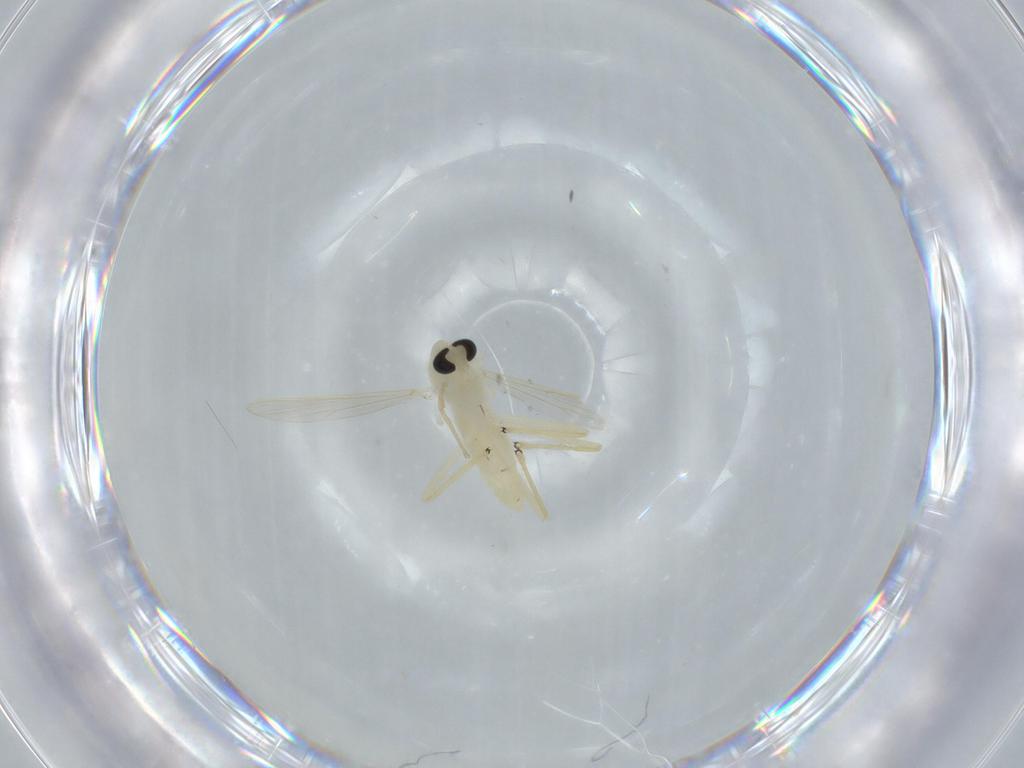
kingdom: Animalia
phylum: Arthropoda
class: Insecta
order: Diptera
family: Chironomidae
